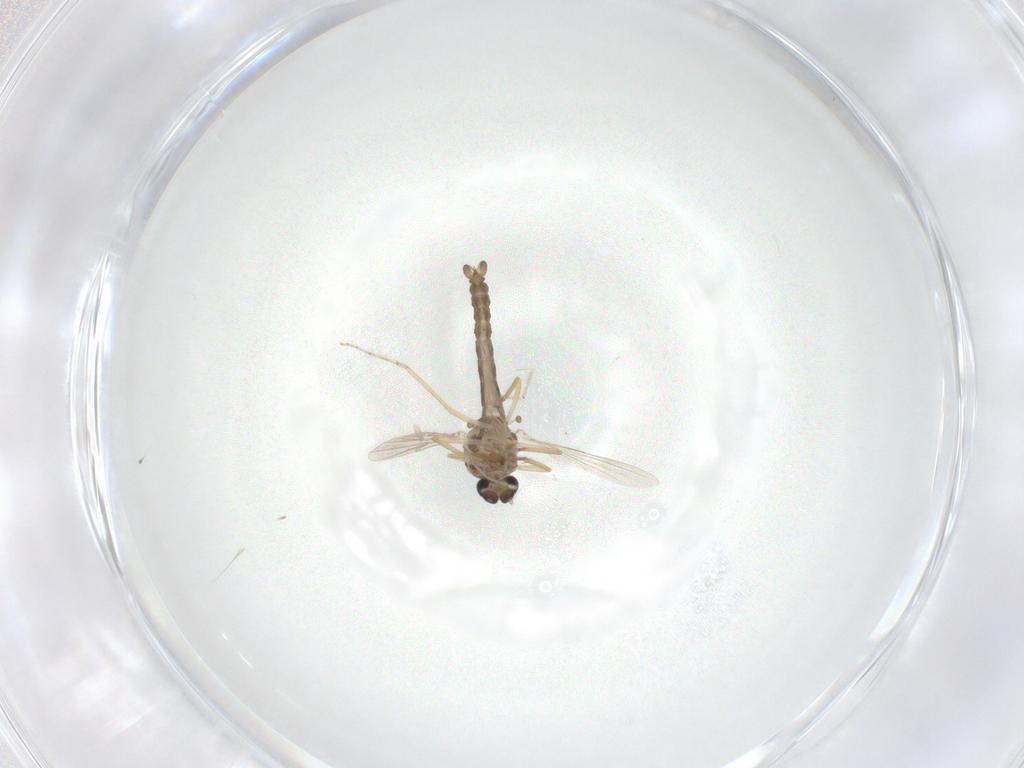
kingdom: Animalia
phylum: Arthropoda
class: Insecta
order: Diptera
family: Ceratopogonidae
